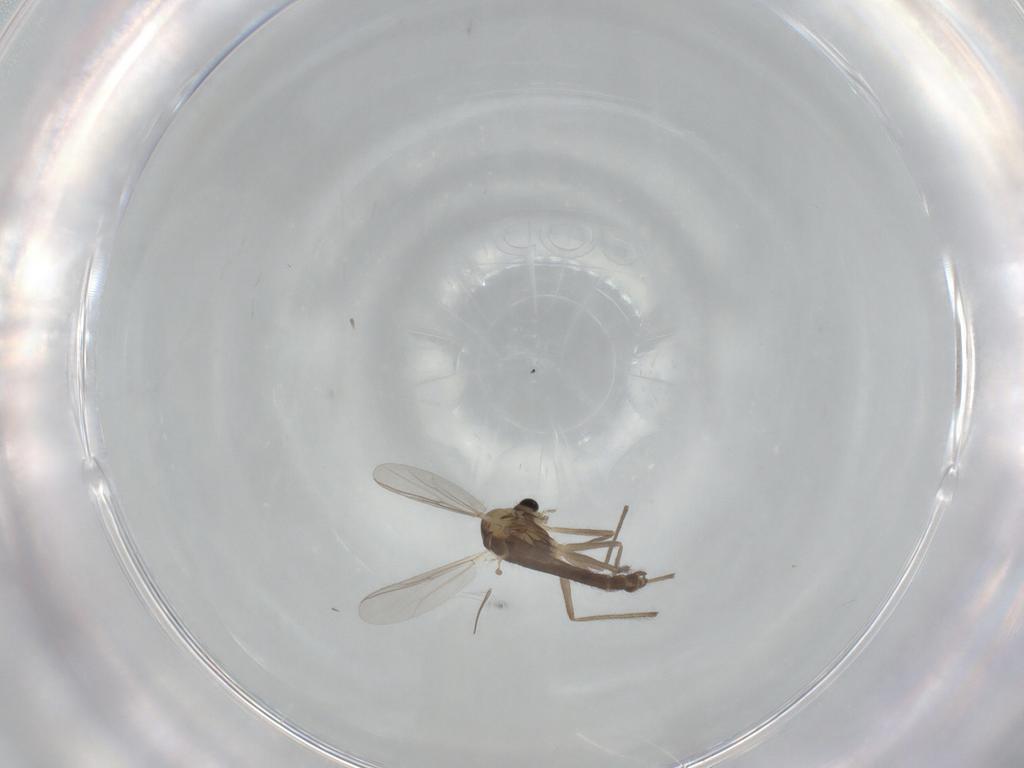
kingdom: Animalia
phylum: Arthropoda
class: Insecta
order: Diptera
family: Chironomidae
